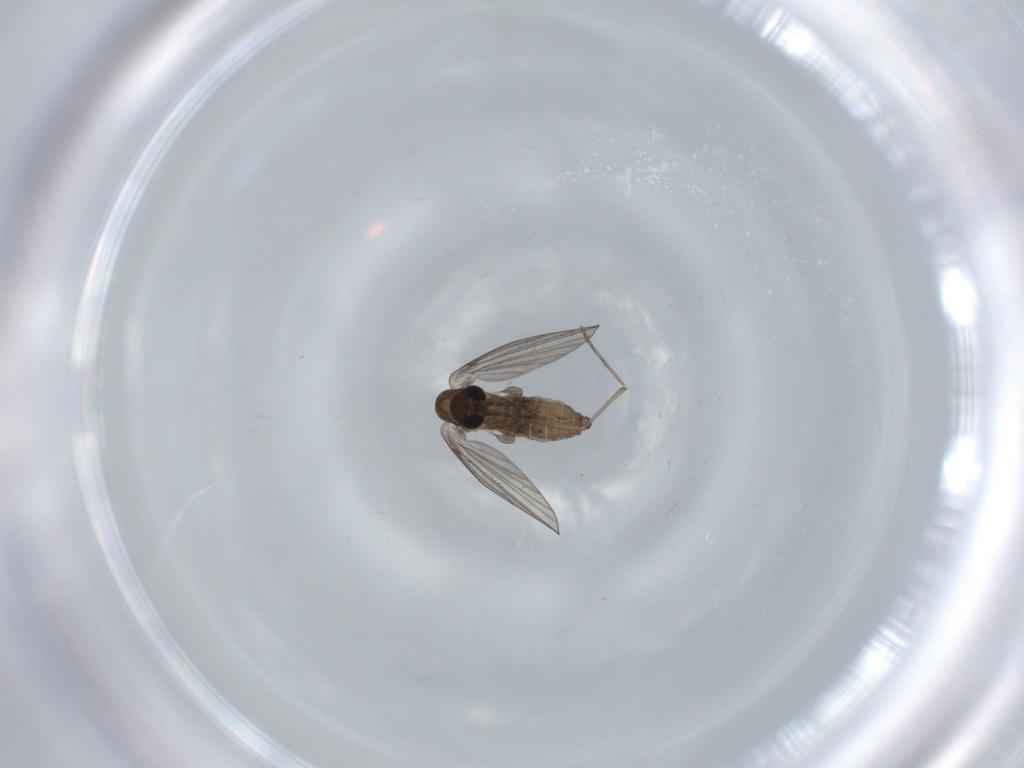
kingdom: Animalia
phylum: Arthropoda
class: Insecta
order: Diptera
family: Psychodidae
